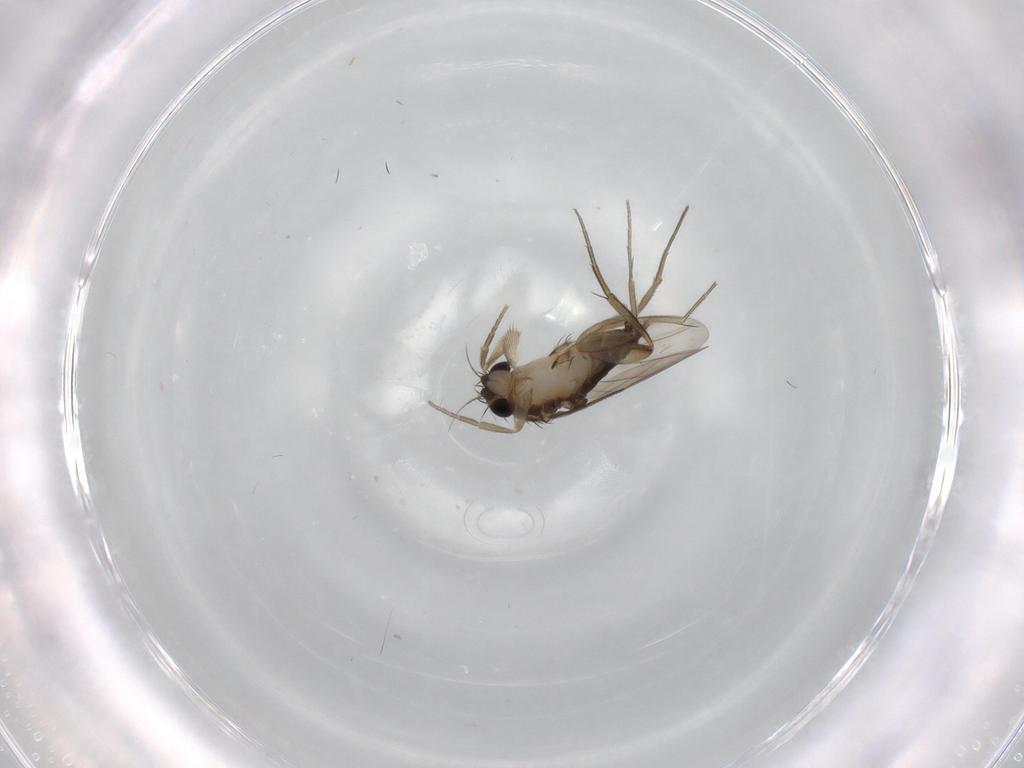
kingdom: Animalia
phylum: Arthropoda
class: Insecta
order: Diptera
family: Phoridae
